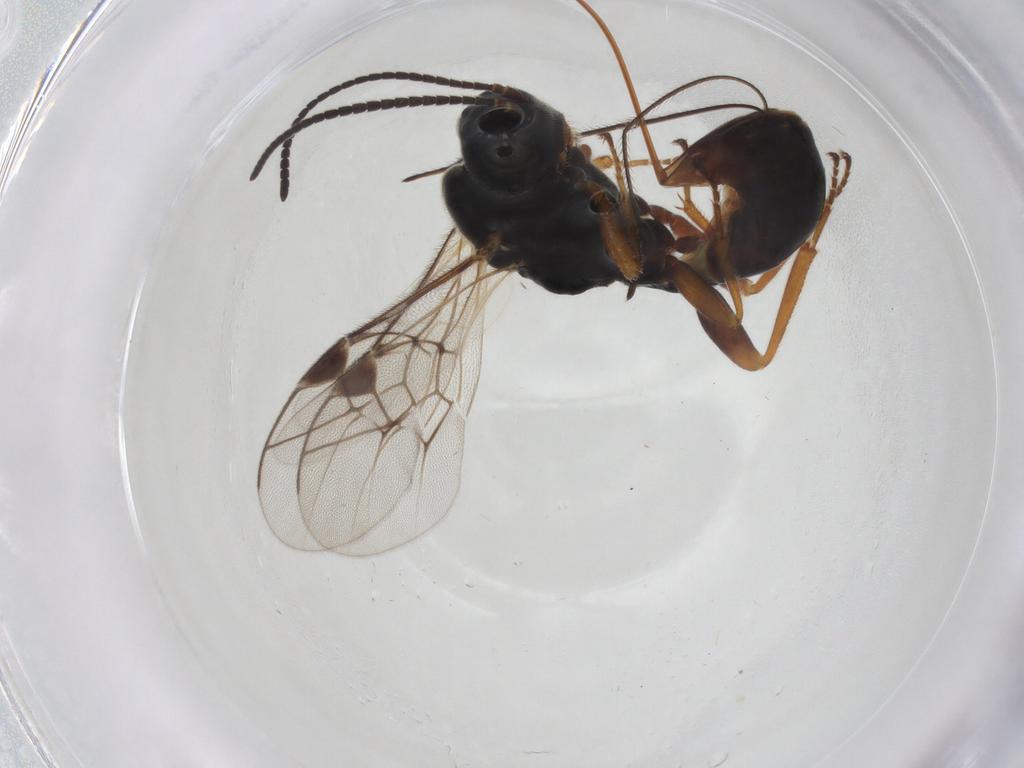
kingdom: Animalia
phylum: Arthropoda
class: Insecta
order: Hymenoptera
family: Ichneumonidae
